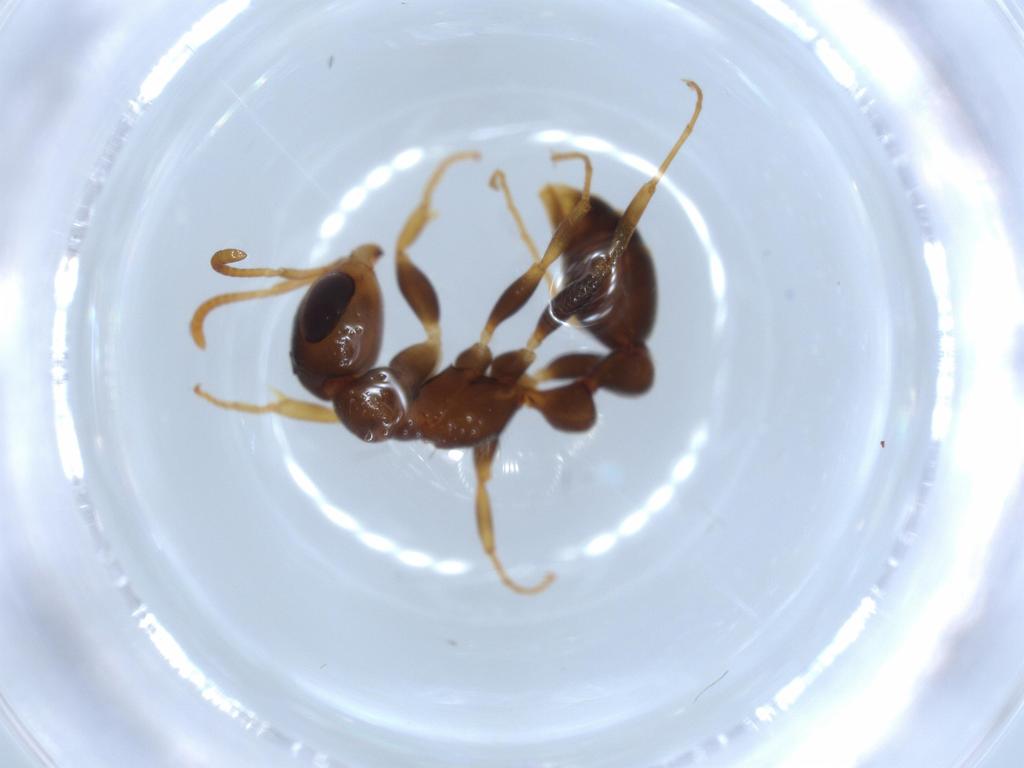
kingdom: Animalia
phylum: Arthropoda
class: Insecta
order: Hymenoptera
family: Formicidae
